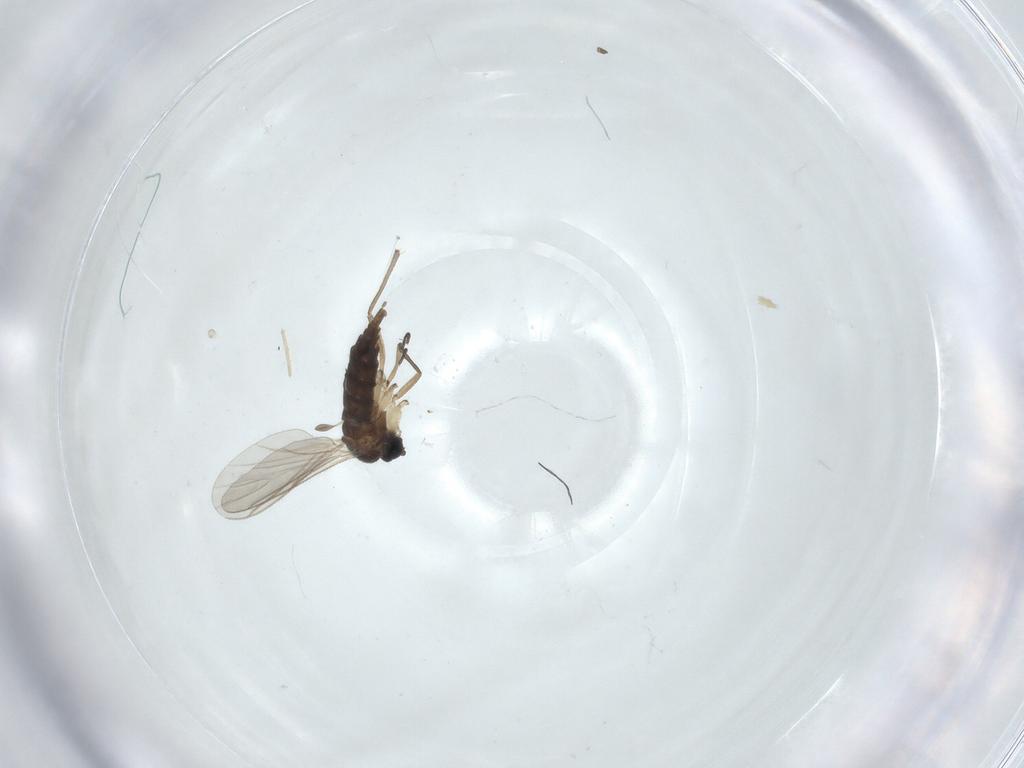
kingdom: Animalia
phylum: Arthropoda
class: Insecta
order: Diptera
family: Sciaridae
